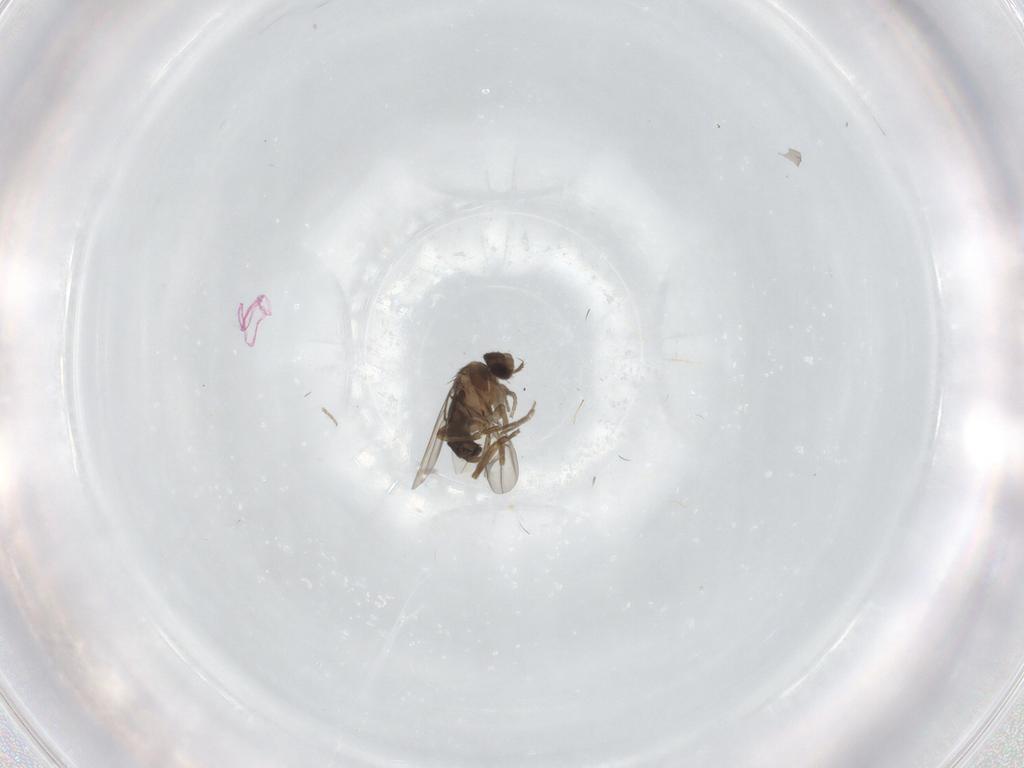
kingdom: Animalia
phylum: Arthropoda
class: Insecta
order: Diptera
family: Phoridae
